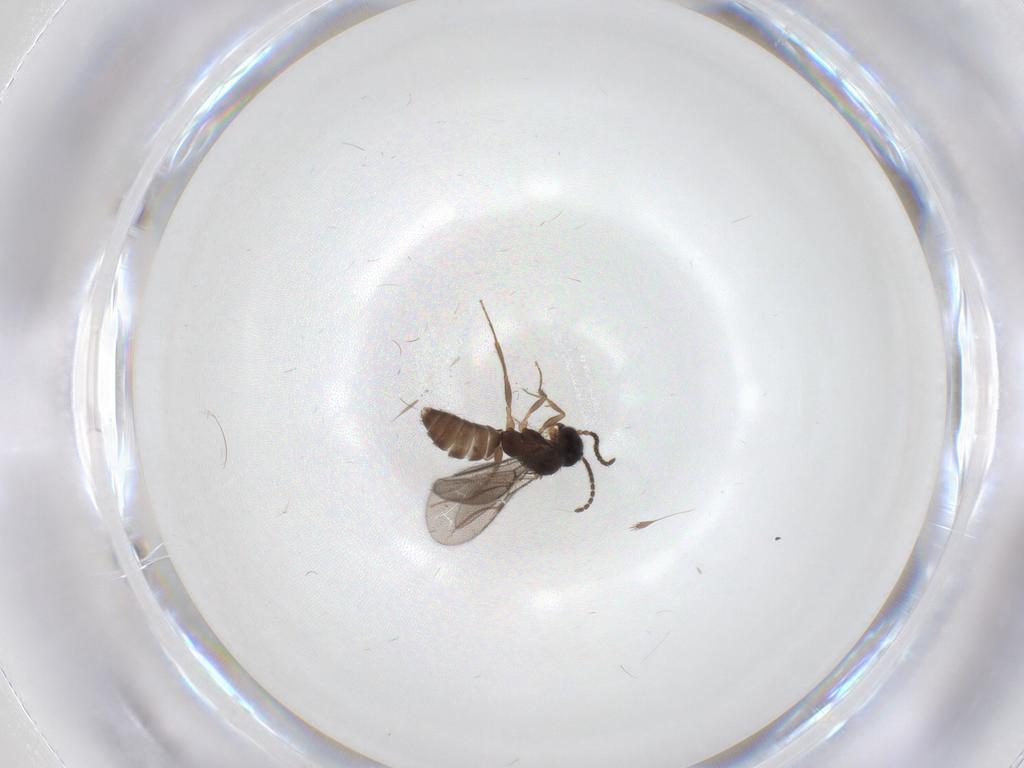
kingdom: Animalia
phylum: Arthropoda
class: Insecta
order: Hymenoptera
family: Bethylidae
